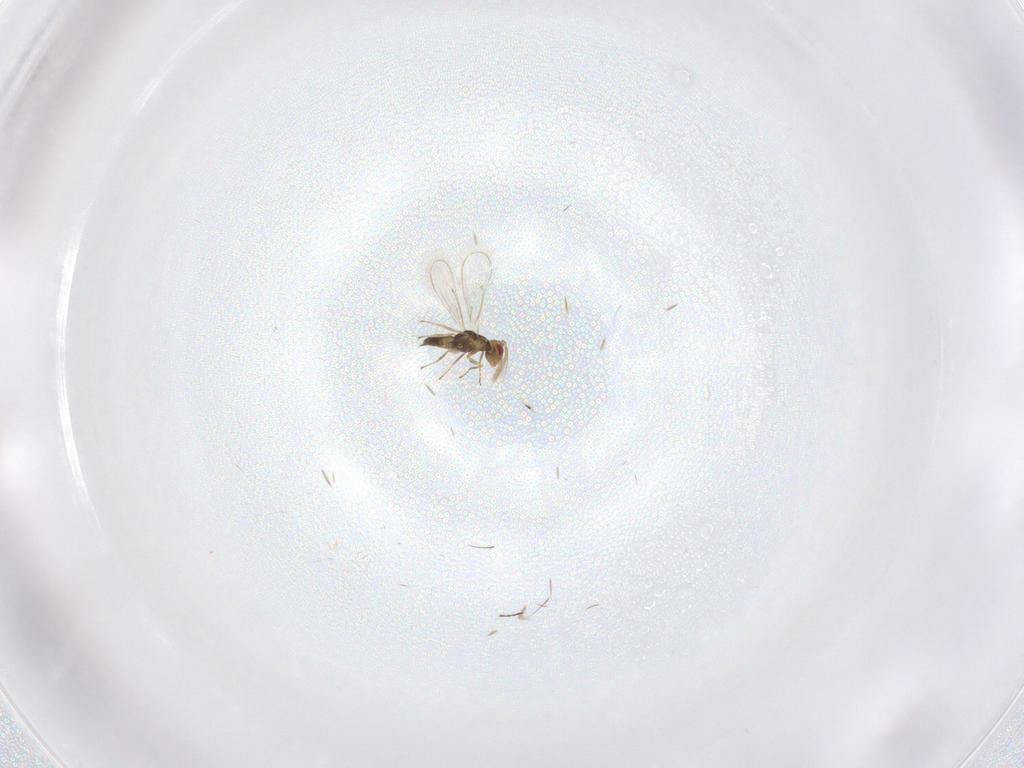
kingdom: Animalia
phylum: Arthropoda
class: Insecta
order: Hymenoptera
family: Eulophidae
